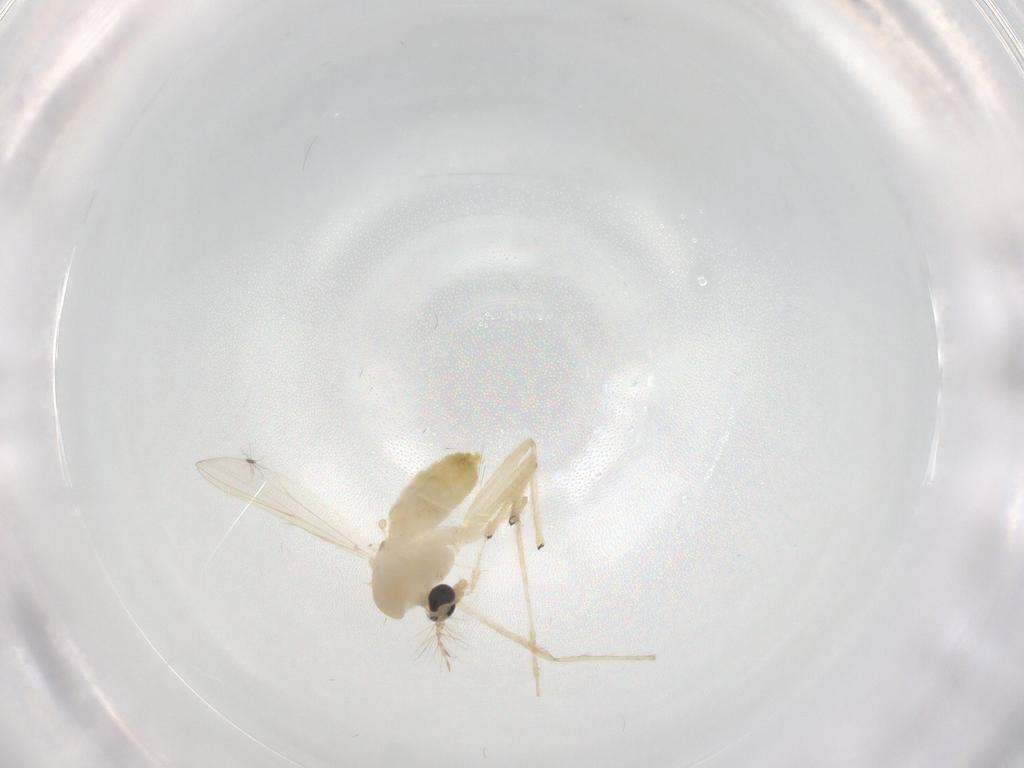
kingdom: Animalia
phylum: Arthropoda
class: Insecta
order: Diptera
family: Chironomidae
